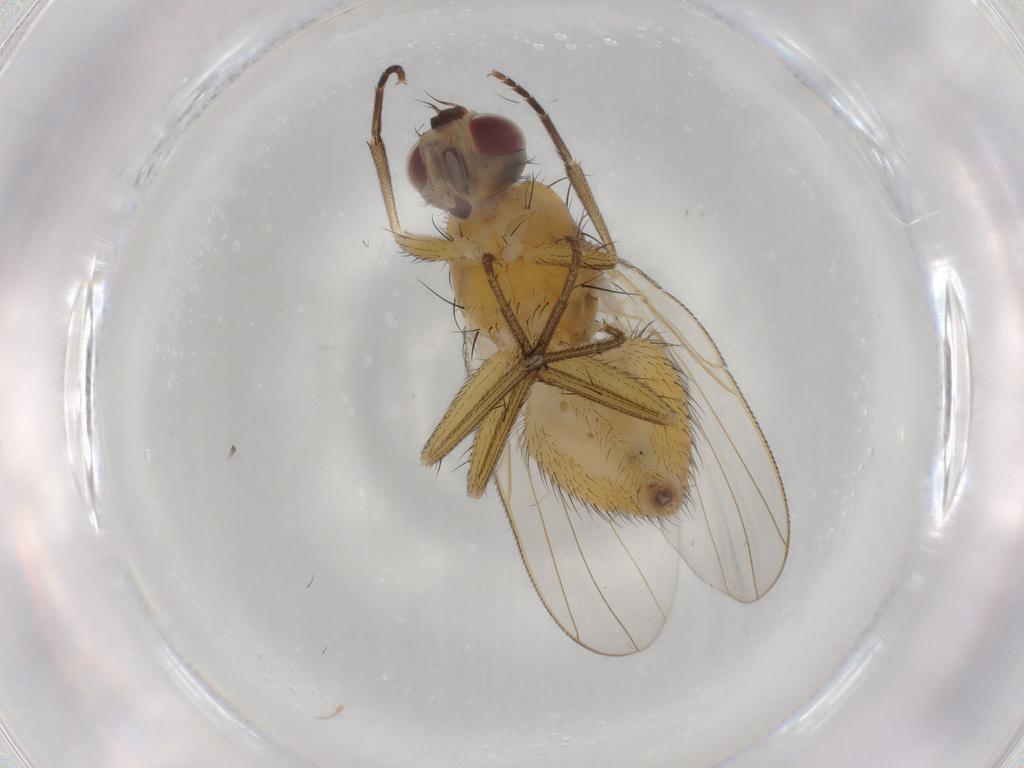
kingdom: Animalia
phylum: Arthropoda
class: Insecta
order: Diptera
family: Muscidae
